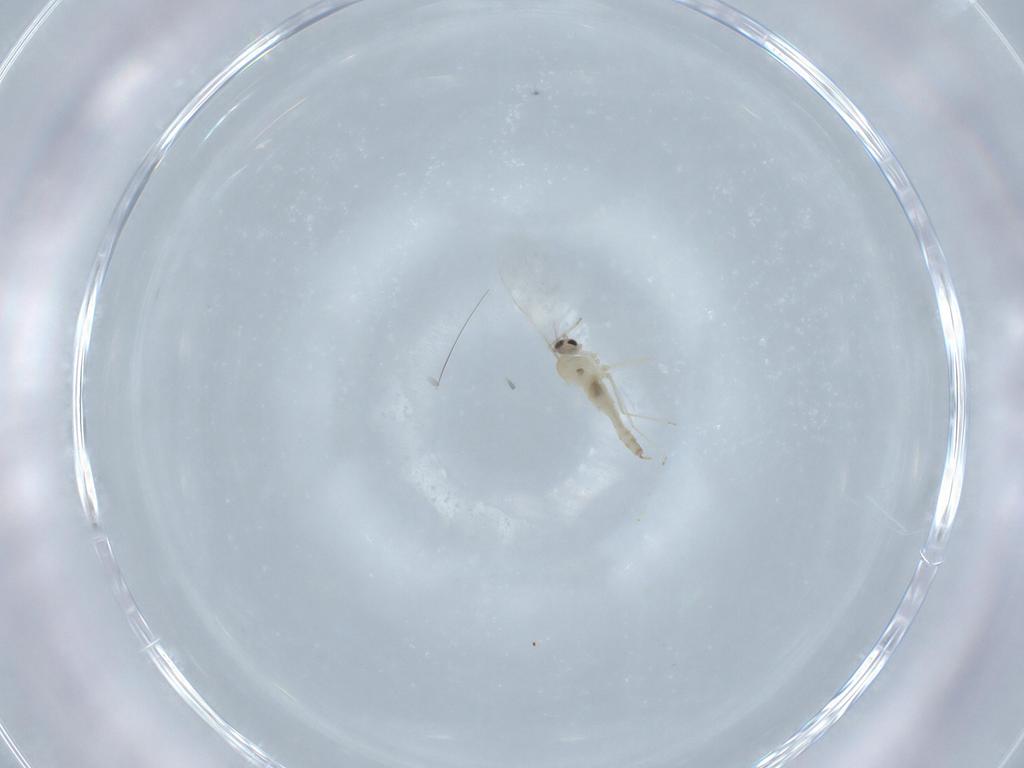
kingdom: Animalia
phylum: Arthropoda
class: Insecta
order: Diptera
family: Cecidomyiidae
